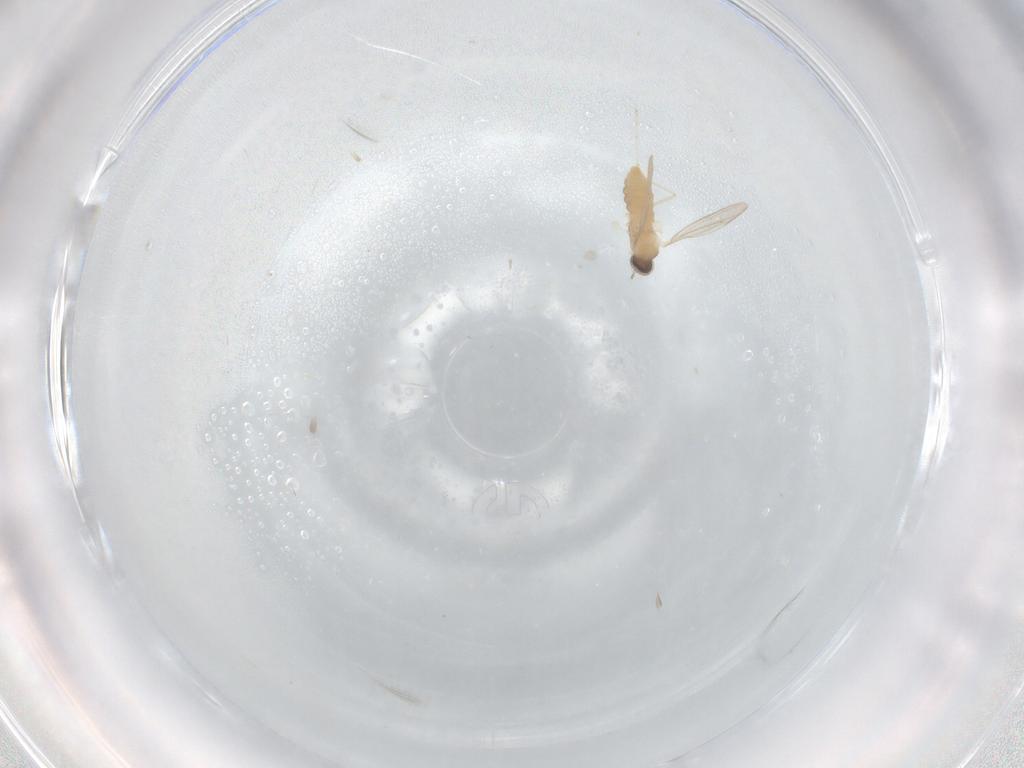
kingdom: Animalia
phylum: Arthropoda
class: Insecta
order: Diptera
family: Cecidomyiidae
